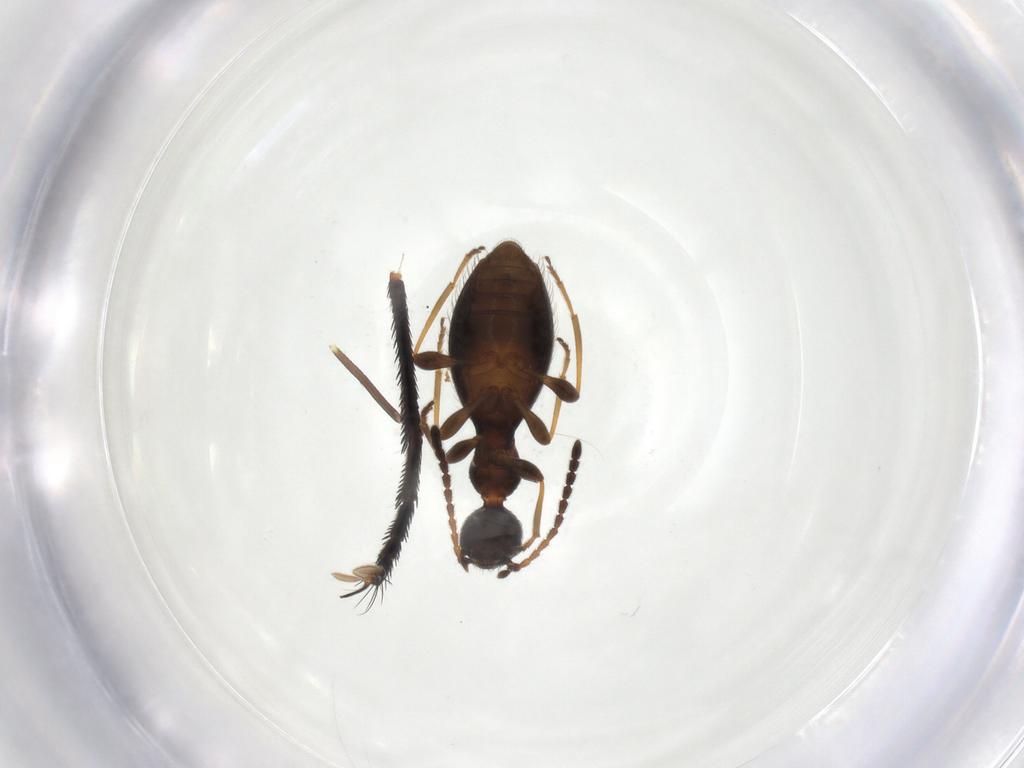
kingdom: Animalia
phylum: Arthropoda
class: Insecta
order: Coleoptera
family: Anthicidae
